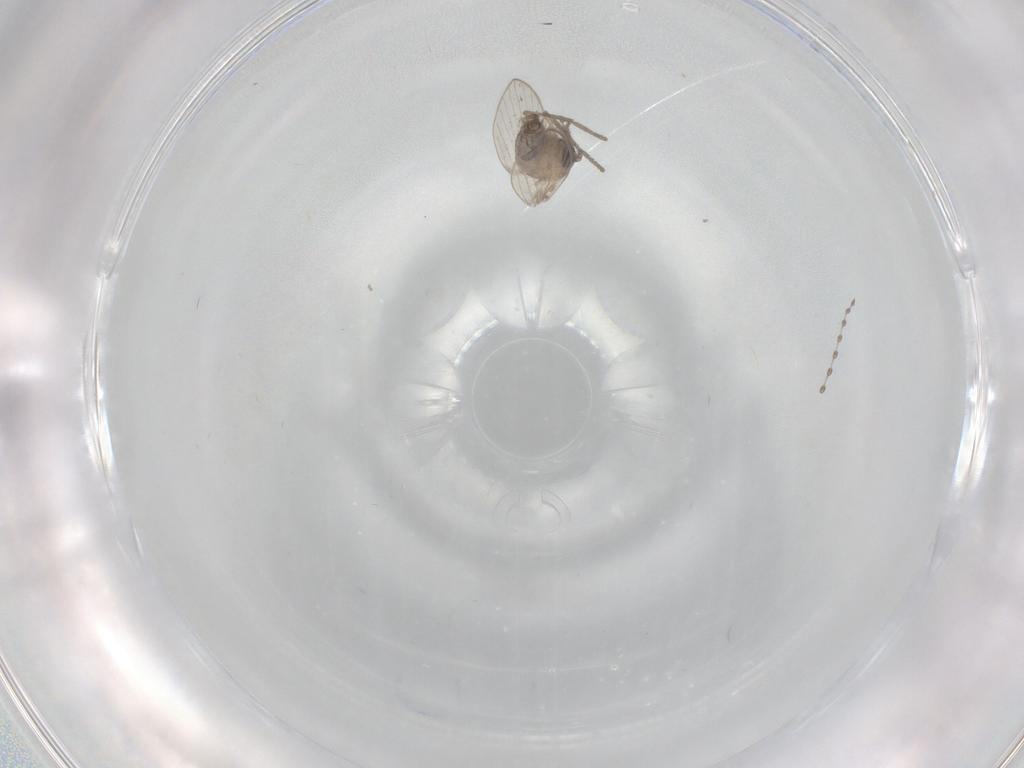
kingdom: Animalia
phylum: Arthropoda
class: Insecta
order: Diptera
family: Psychodidae
